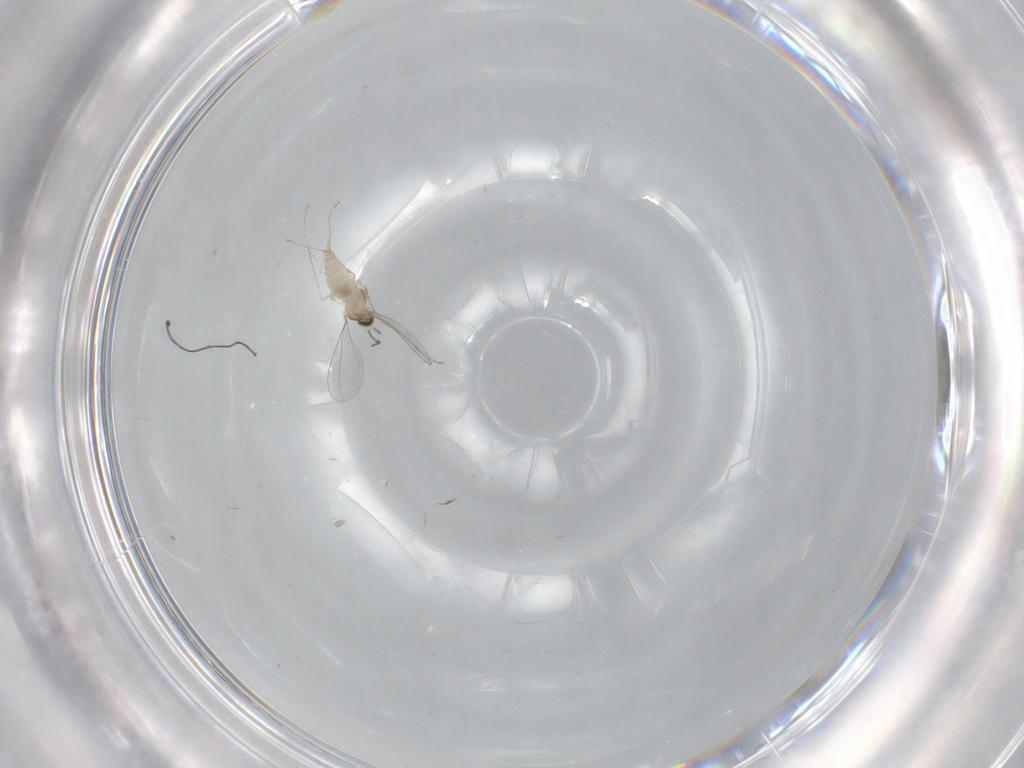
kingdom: Animalia
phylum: Arthropoda
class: Insecta
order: Diptera
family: Cecidomyiidae
